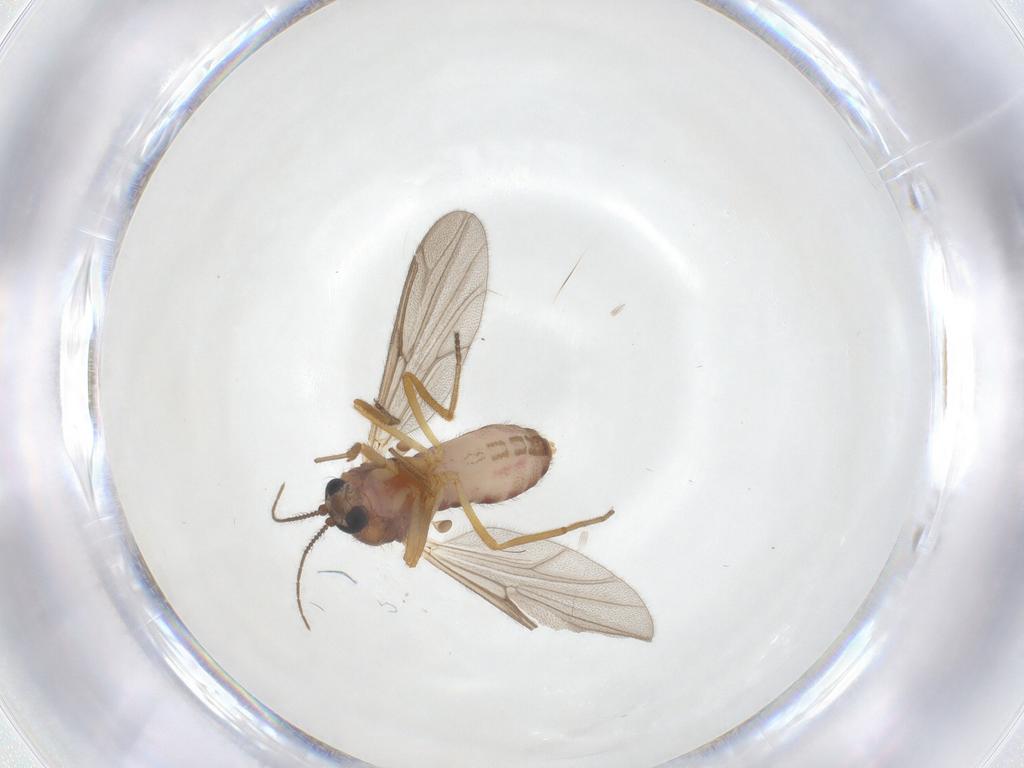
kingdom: Animalia
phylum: Arthropoda
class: Insecta
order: Diptera
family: Ceratopogonidae
